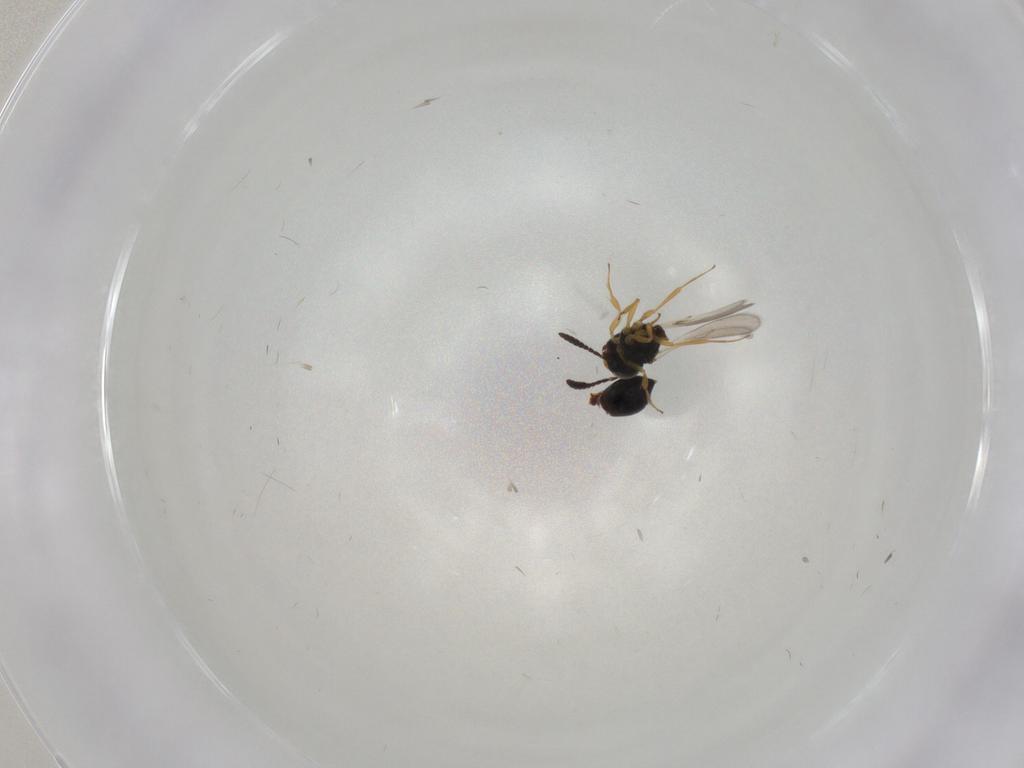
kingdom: Animalia
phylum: Arthropoda
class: Insecta
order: Hymenoptera
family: Scelionidae
